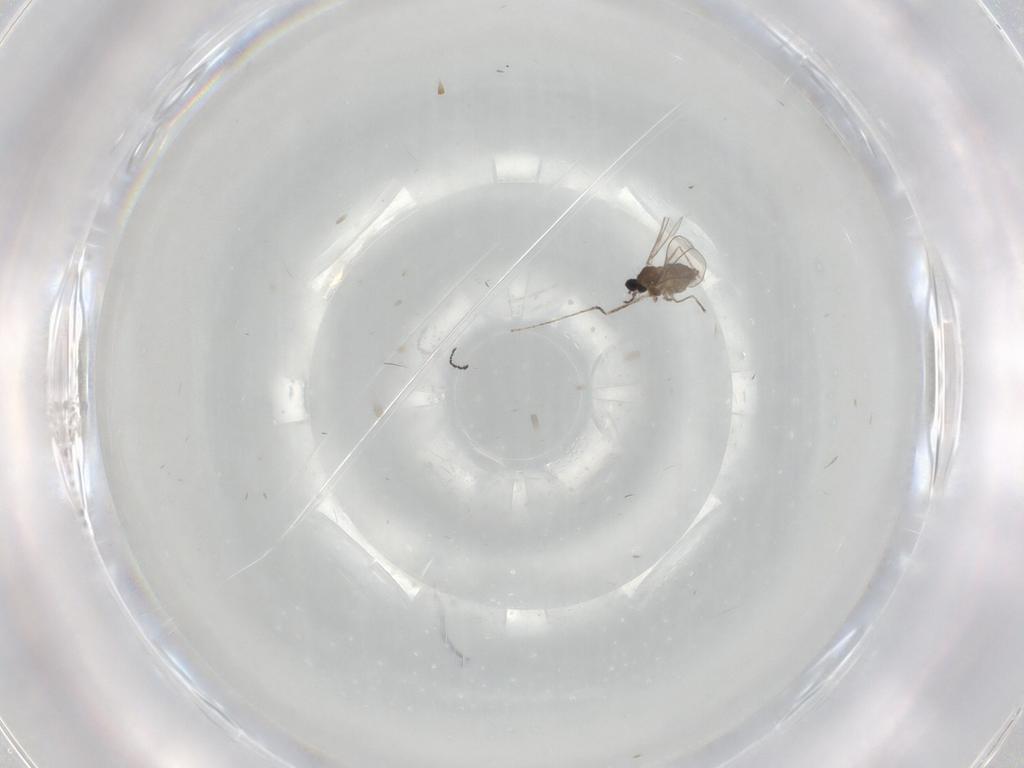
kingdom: Animalia
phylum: Arthropoda
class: Insecta
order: Diptera
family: Cecidomyiidae
